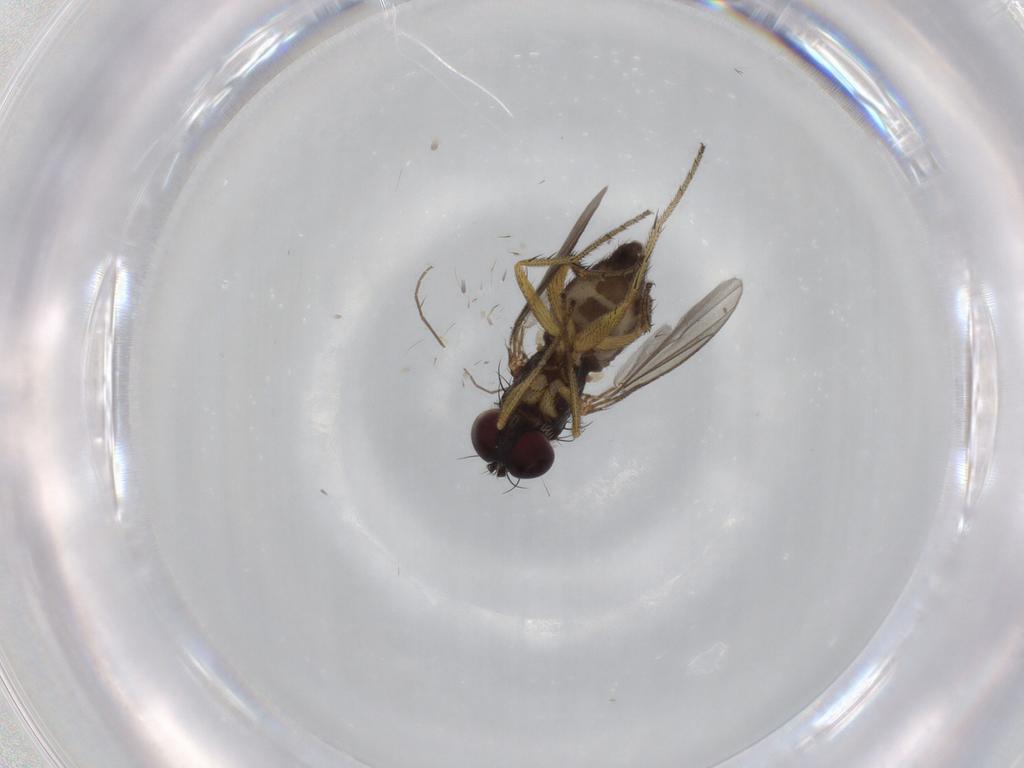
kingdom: Animalia
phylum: Arthropoda
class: Insecta
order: Diptera
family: Dolichopodidae
